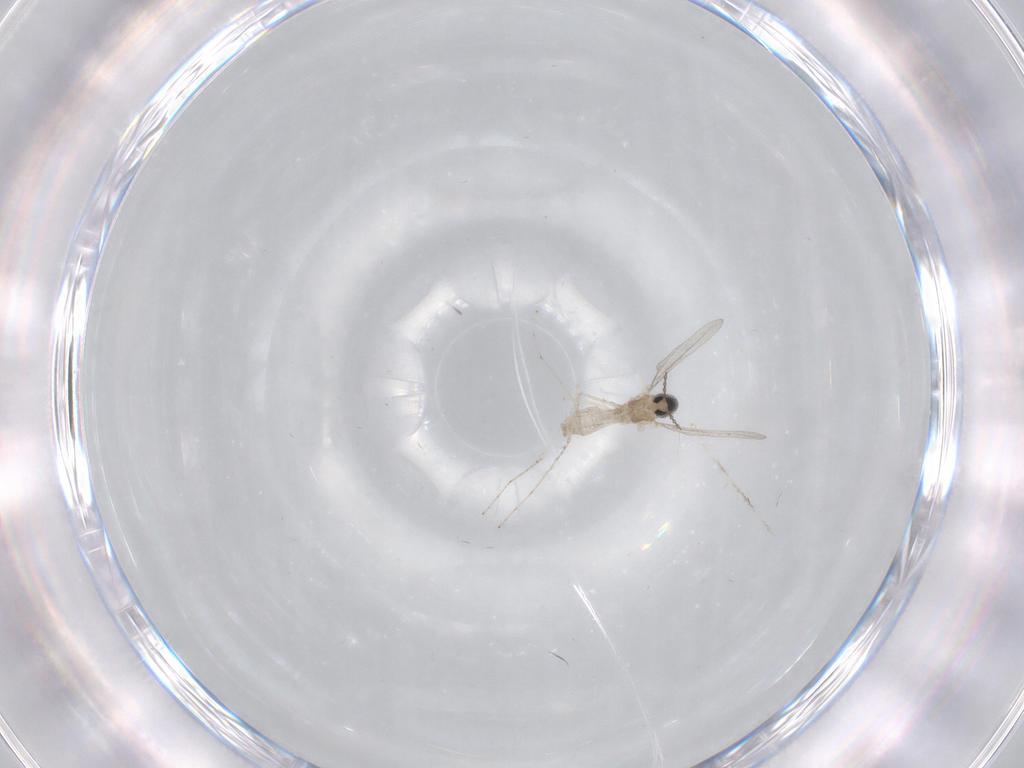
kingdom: Animalia
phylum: Arthropoda
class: Insecta
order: Diptera
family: Cecidomyiidae
